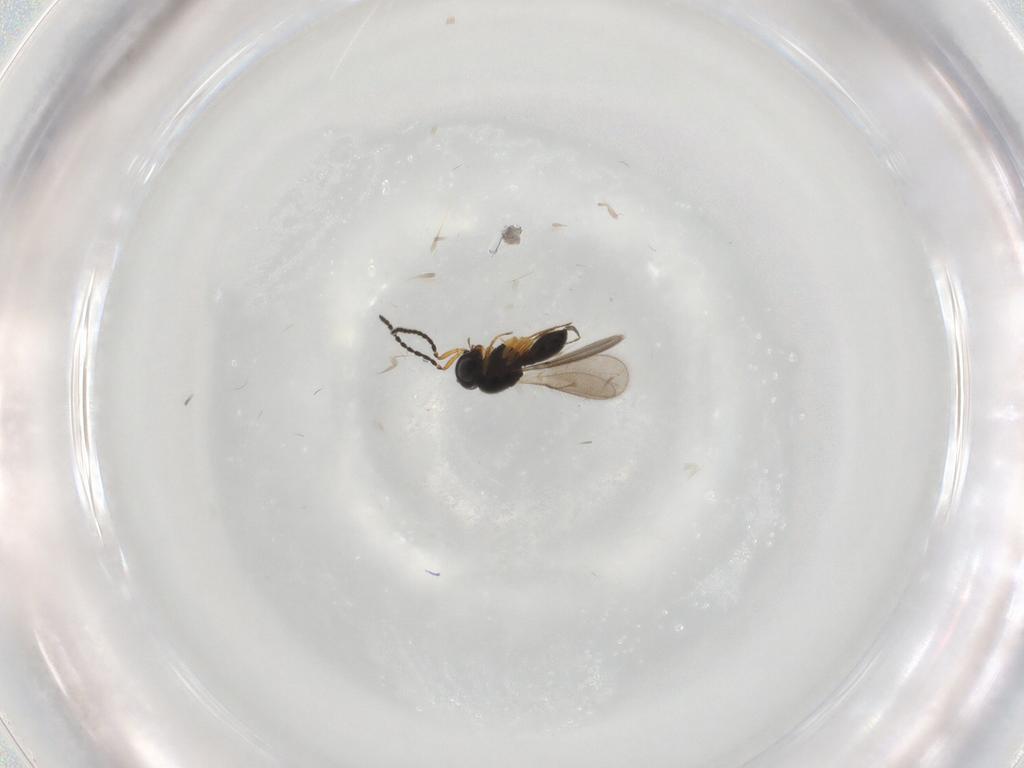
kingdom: Animalia
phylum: Arthropoda
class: Insecta
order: Hymenoptera
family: Scelionidae
